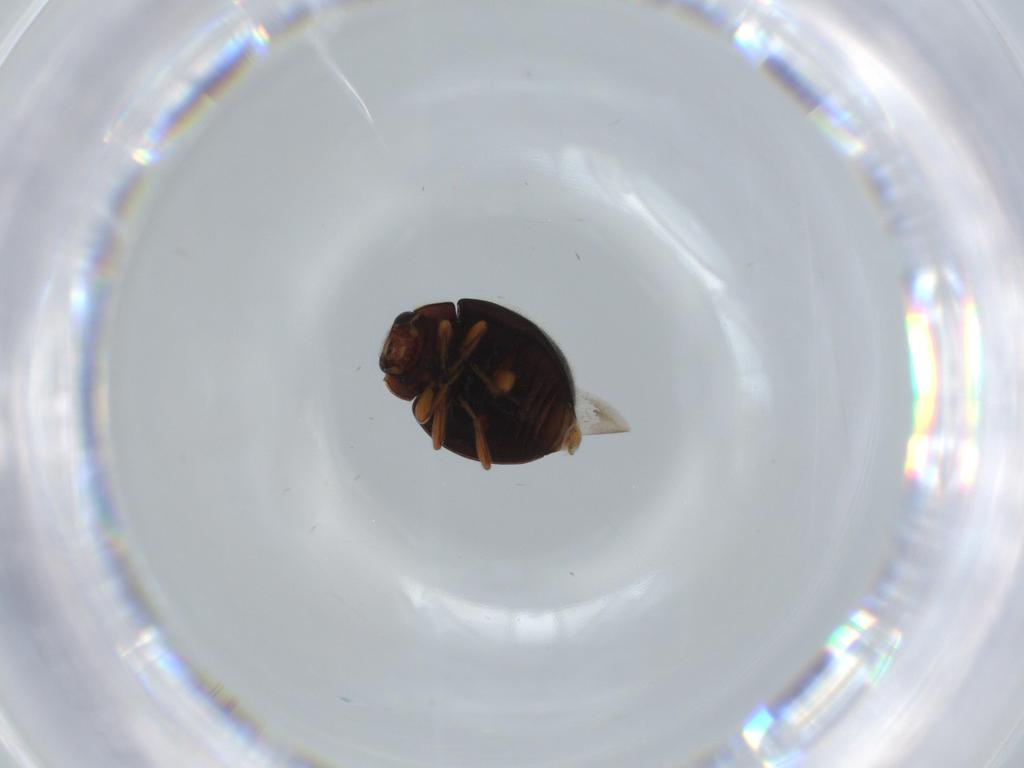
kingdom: Animalia
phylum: Arthropoda
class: Insecta
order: Coleoptera
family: Coccinellidae
